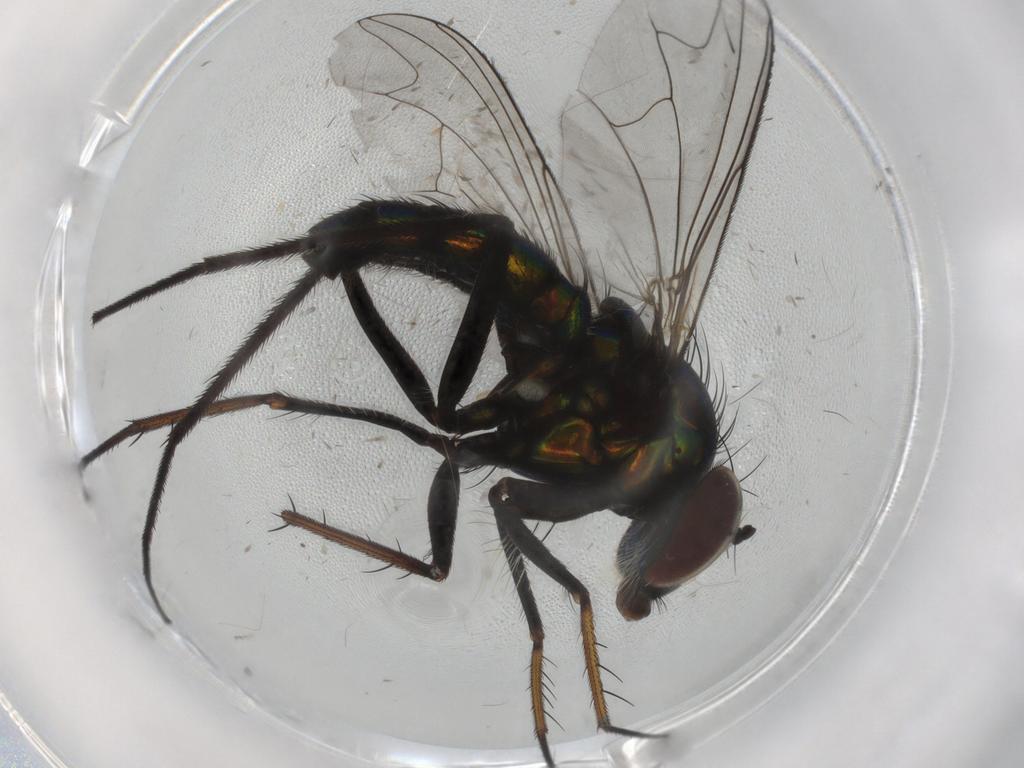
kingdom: Animalia
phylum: Arthropoda
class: Insecta
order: Diptera
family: Dolichopodidae
